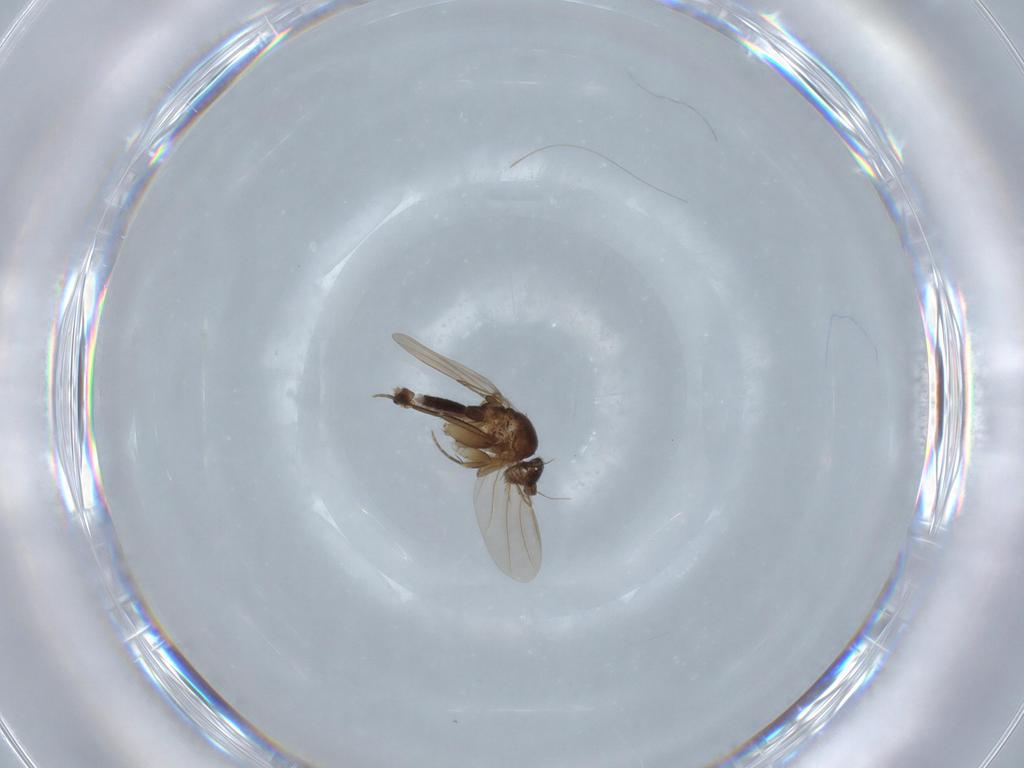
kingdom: Animalia
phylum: Arthropoda
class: Insecta
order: Diptera
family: Phoridae
